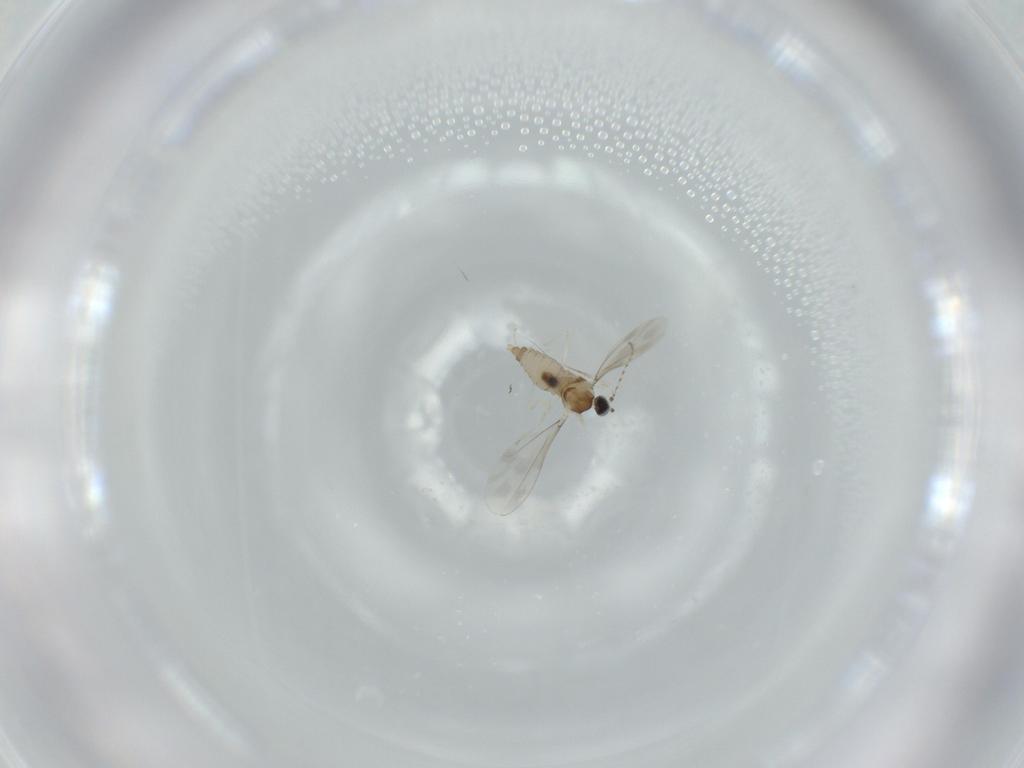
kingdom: Animalia
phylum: Arthropoda
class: Insecta
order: Diptera
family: Cecidomyiidae
